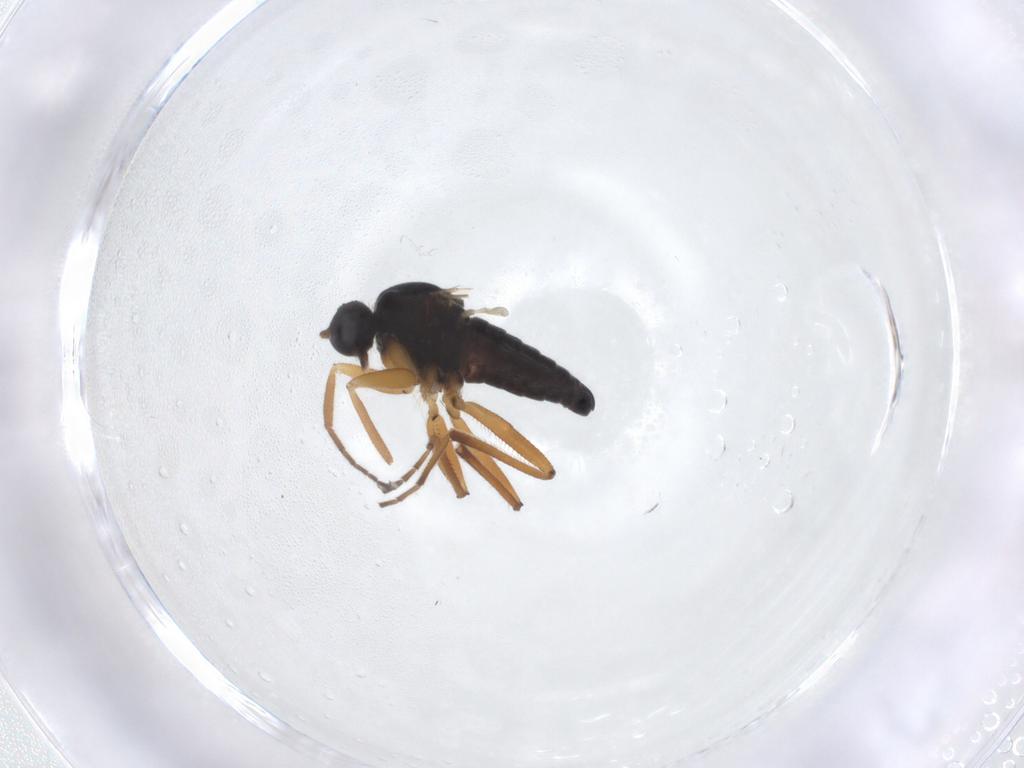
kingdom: Animalia
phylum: Arthropoda
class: Insecta
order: Diptera
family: Hybotidae
